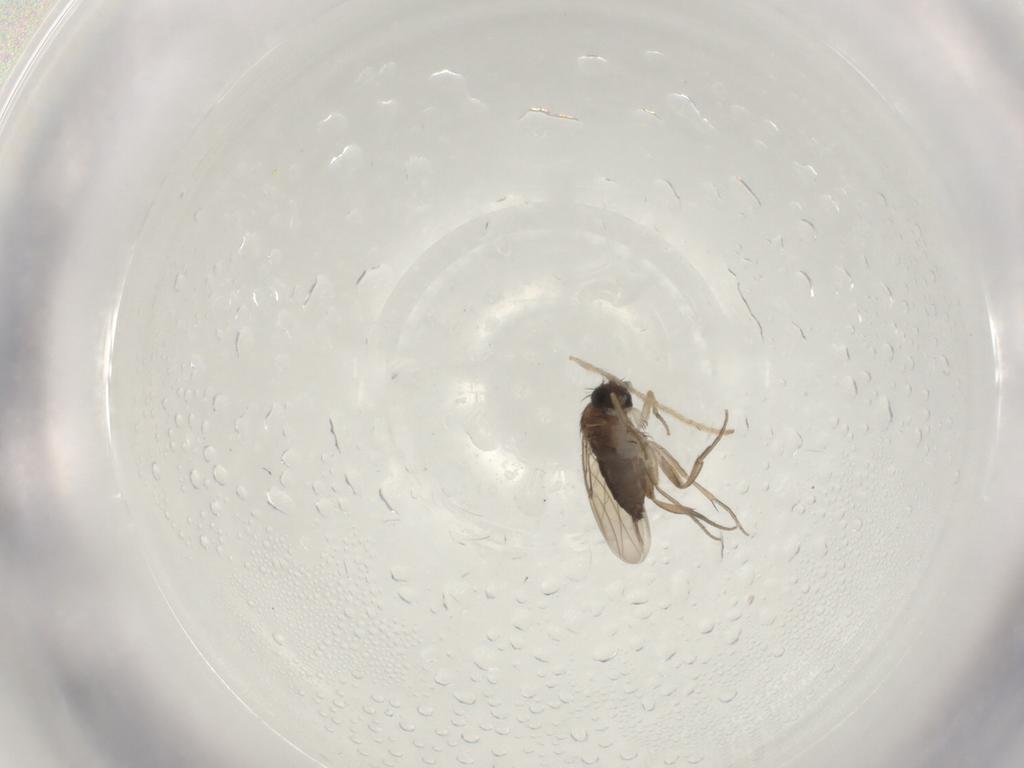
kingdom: Animalia
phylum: Arthropoda
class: Insecta
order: Diptera
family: Phoridae
